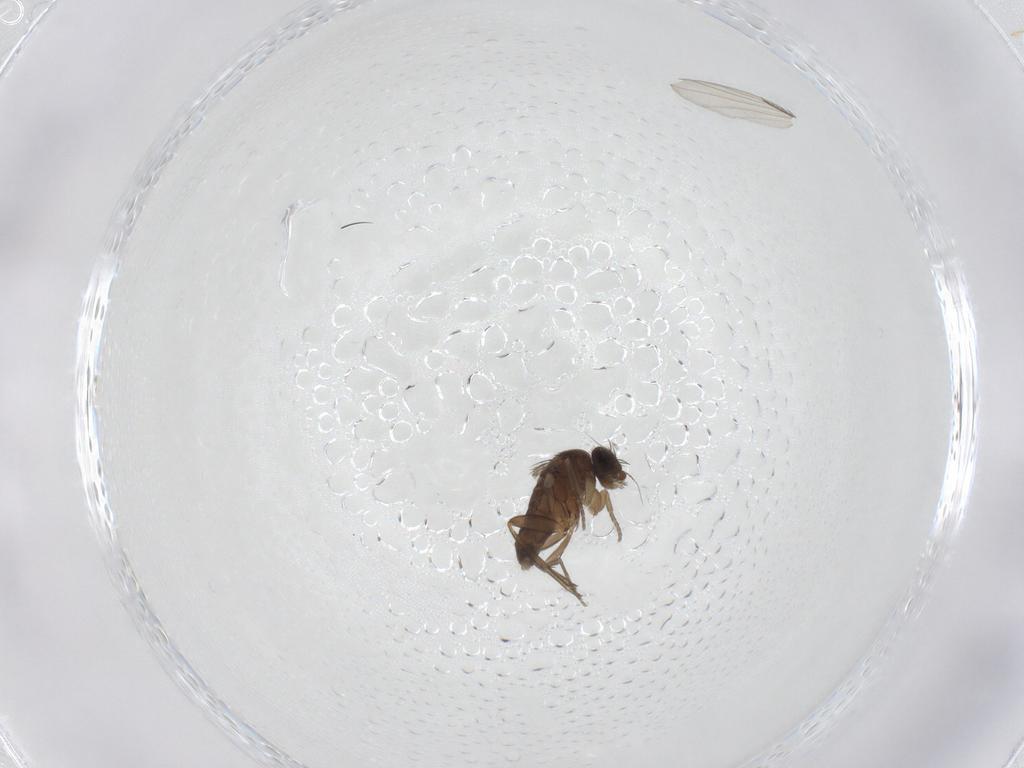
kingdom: Animalia
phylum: Arthropoda
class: Insecta
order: Diptera
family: Phoridae
